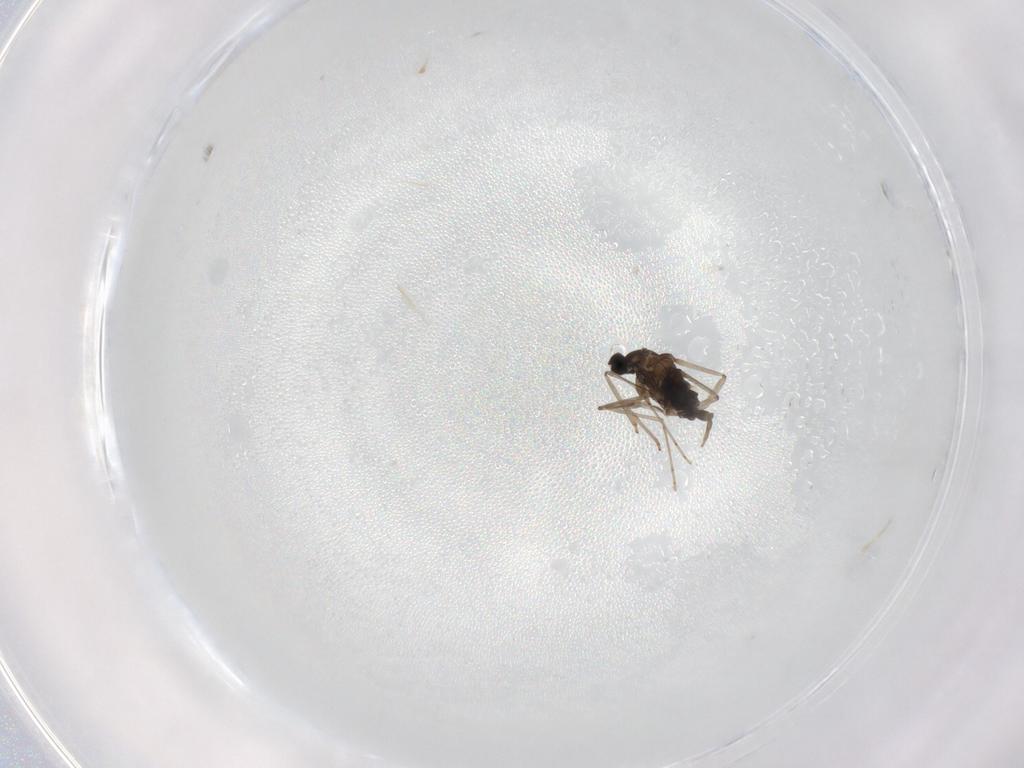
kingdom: Animalia
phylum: Arthropoda
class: Insecta
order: Diptera
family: Cecidomyiidae
